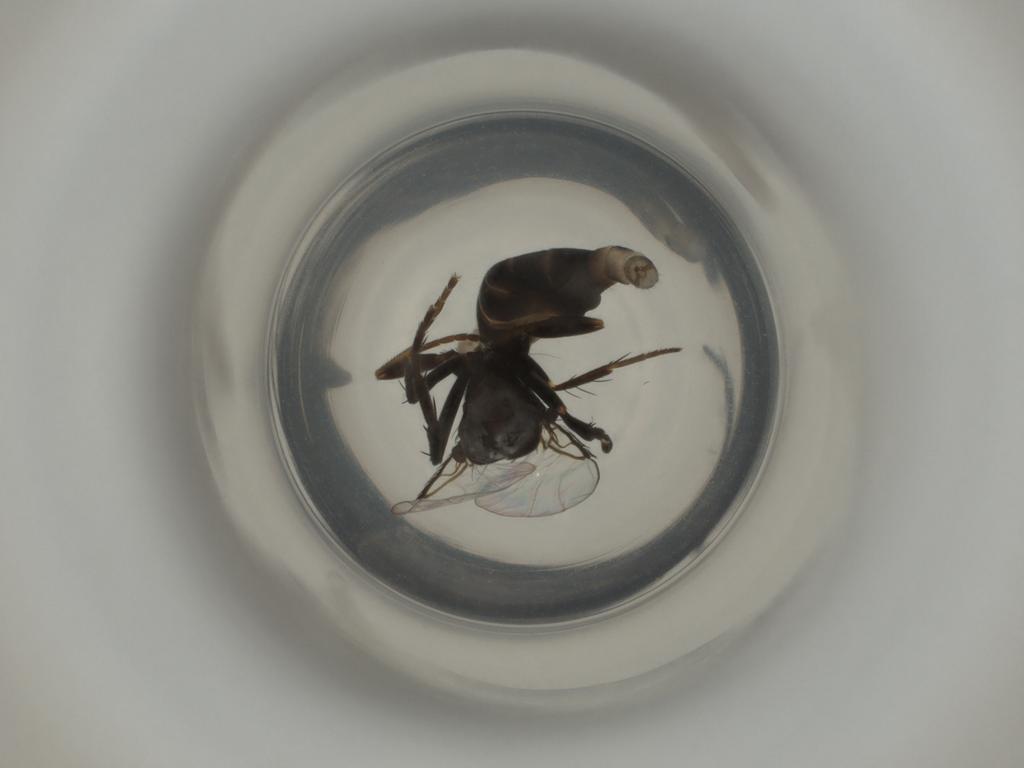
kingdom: Animalia
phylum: Arthropoda
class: Insecta
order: Diptera
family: Phoridae
